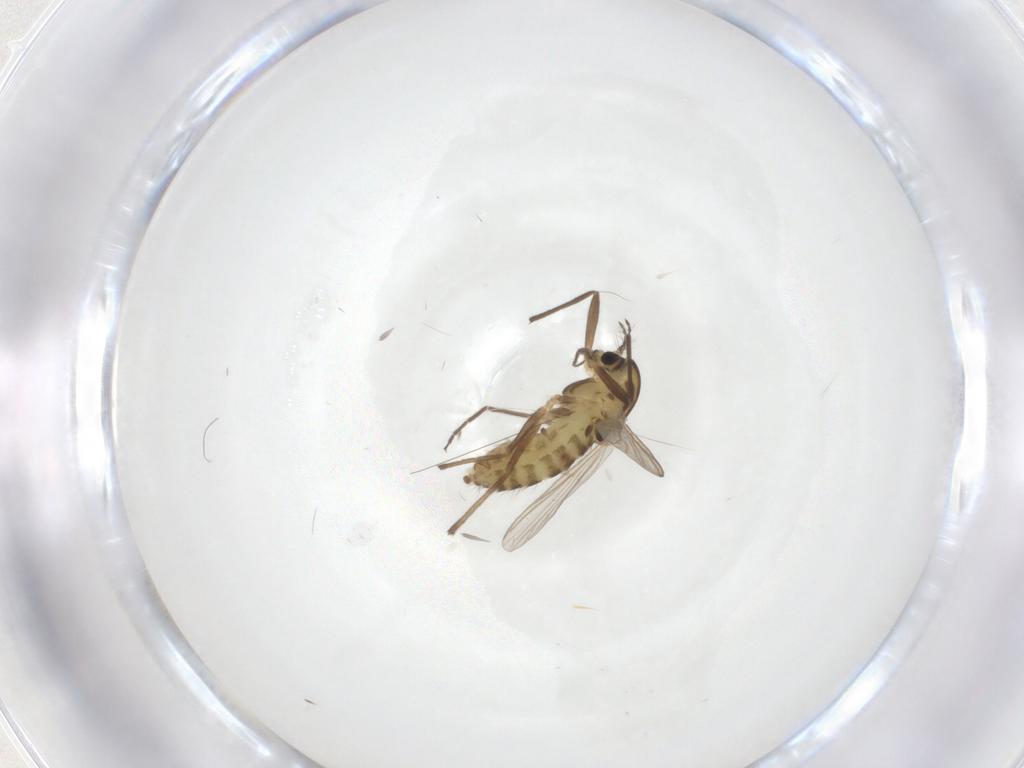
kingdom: Animalia
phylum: Arthropoda
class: Insecta
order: Diptera
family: Chironomidae
